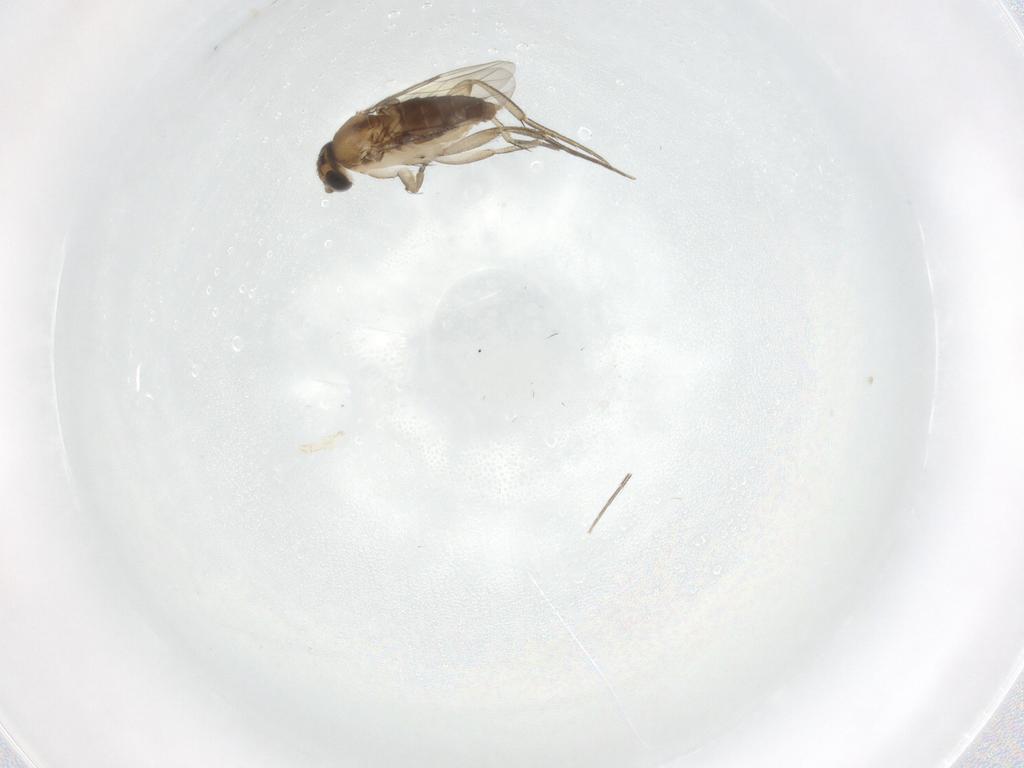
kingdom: Animalia
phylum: Arthropoda
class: Insecta
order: Diptera
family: Phoridae
